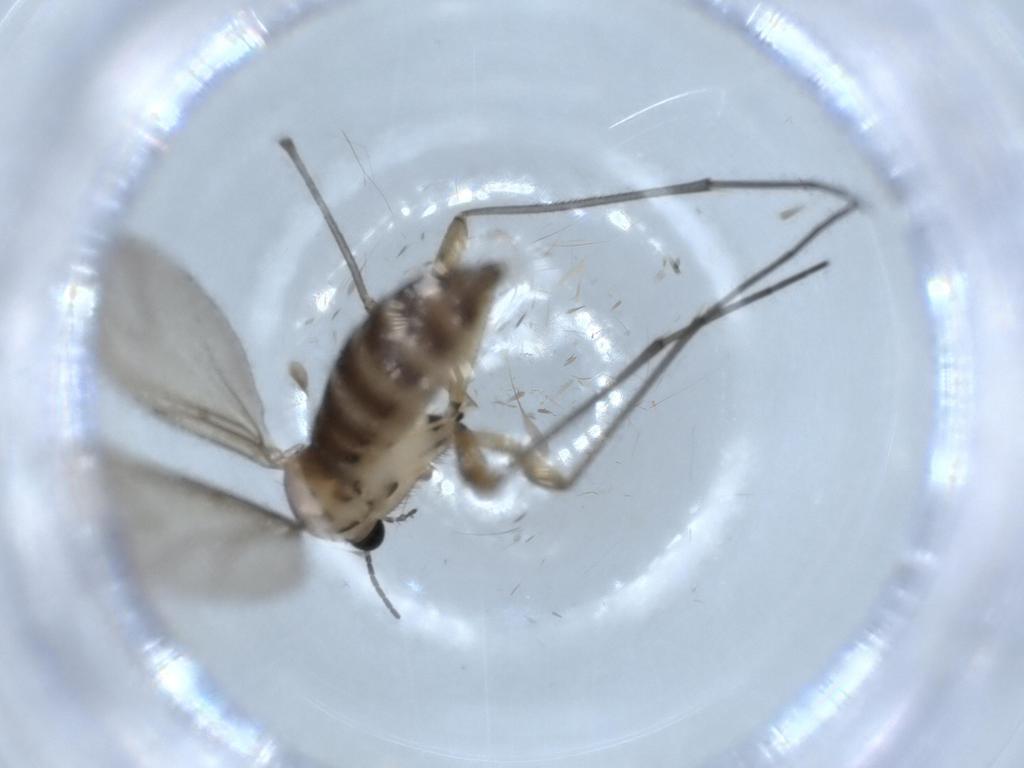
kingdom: Animalia
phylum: Arthropoda
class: Insecta
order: Diptera
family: Sciaridae
